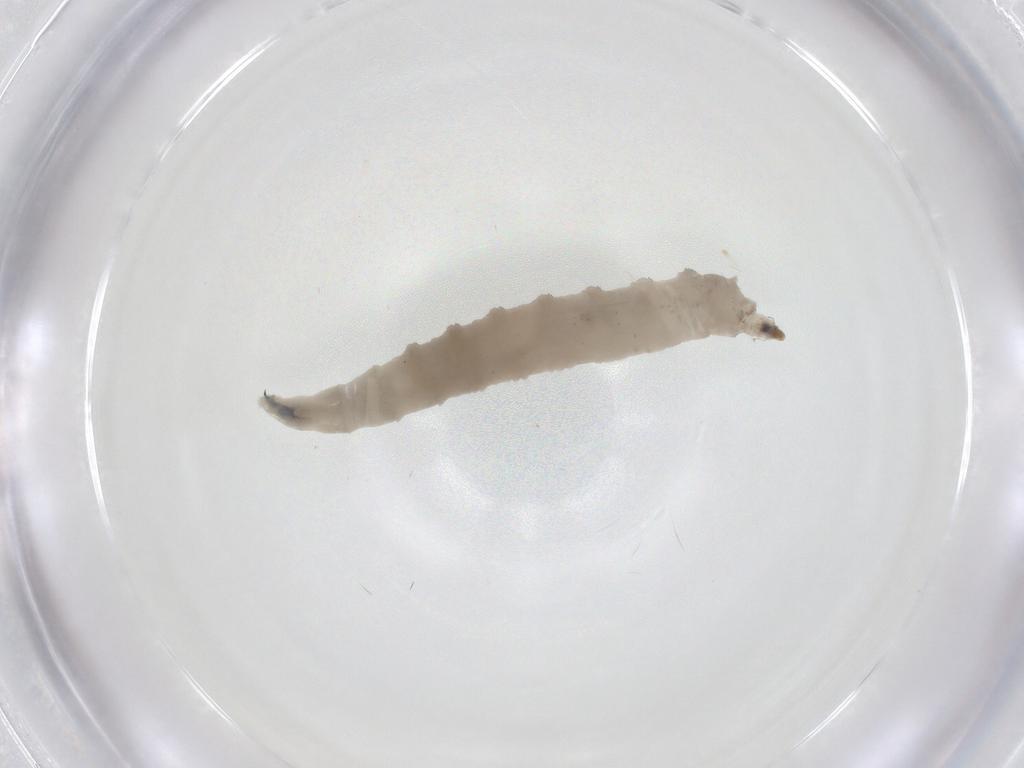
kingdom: Animalia
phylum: Arthropoda
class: Insecta
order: Diptera
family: Drosophilidae
